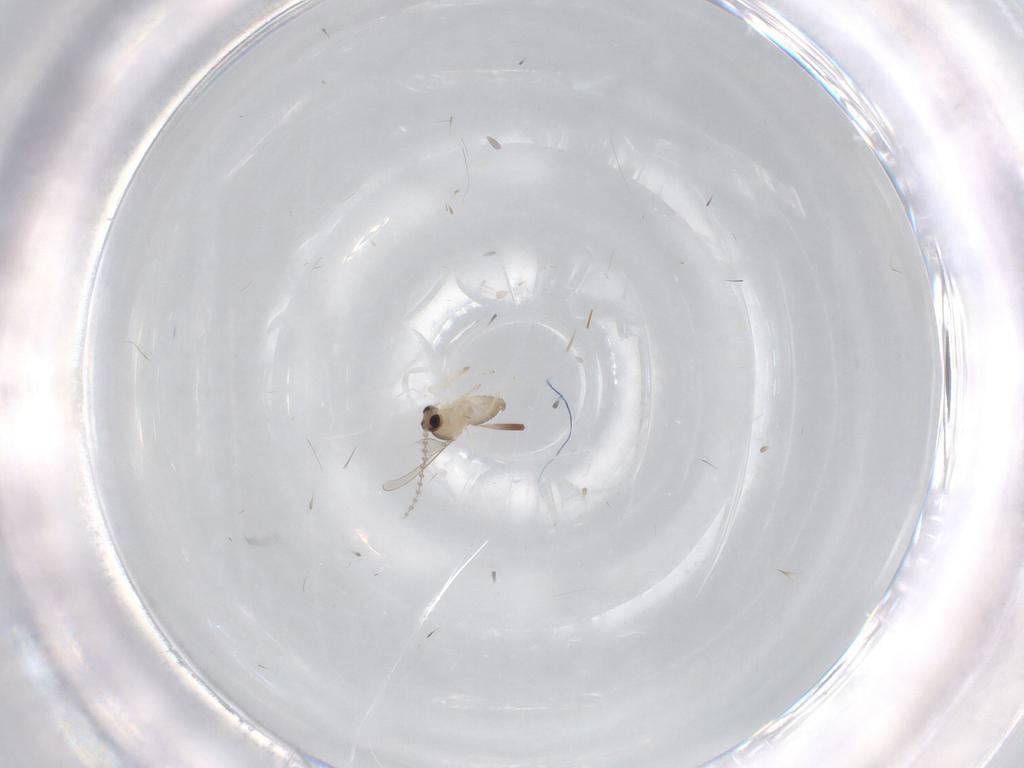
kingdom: Animalia
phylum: Arthropoda
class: Insecta
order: Diptera
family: Cecidomyiidae
